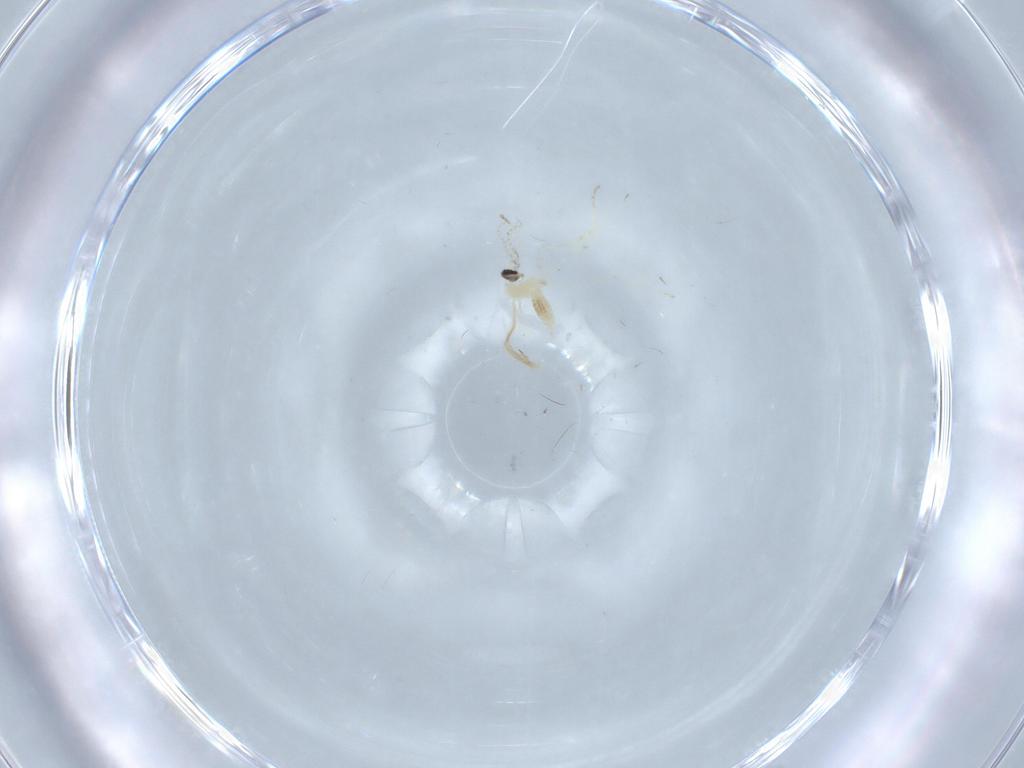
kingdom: Animalia
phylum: Arthropoda
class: Insecta
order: Diptera
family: Cecidomyiidae
